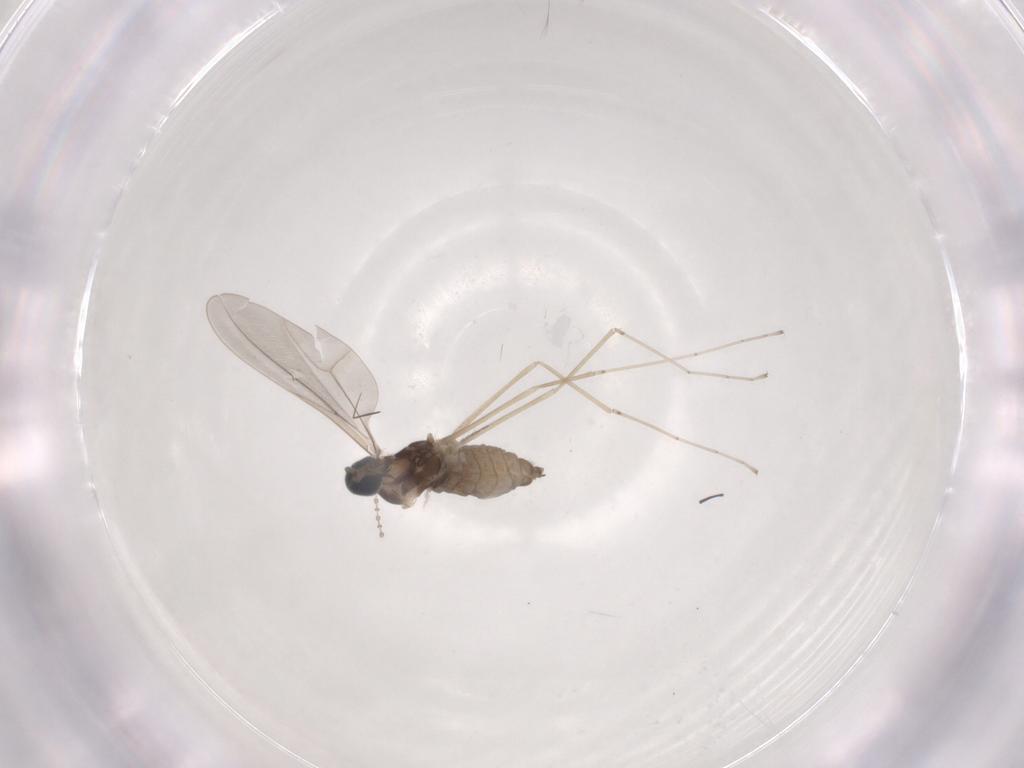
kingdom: Animalia
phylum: Arthropoda
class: Insecta
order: Diptera
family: Cecidomyiidae
